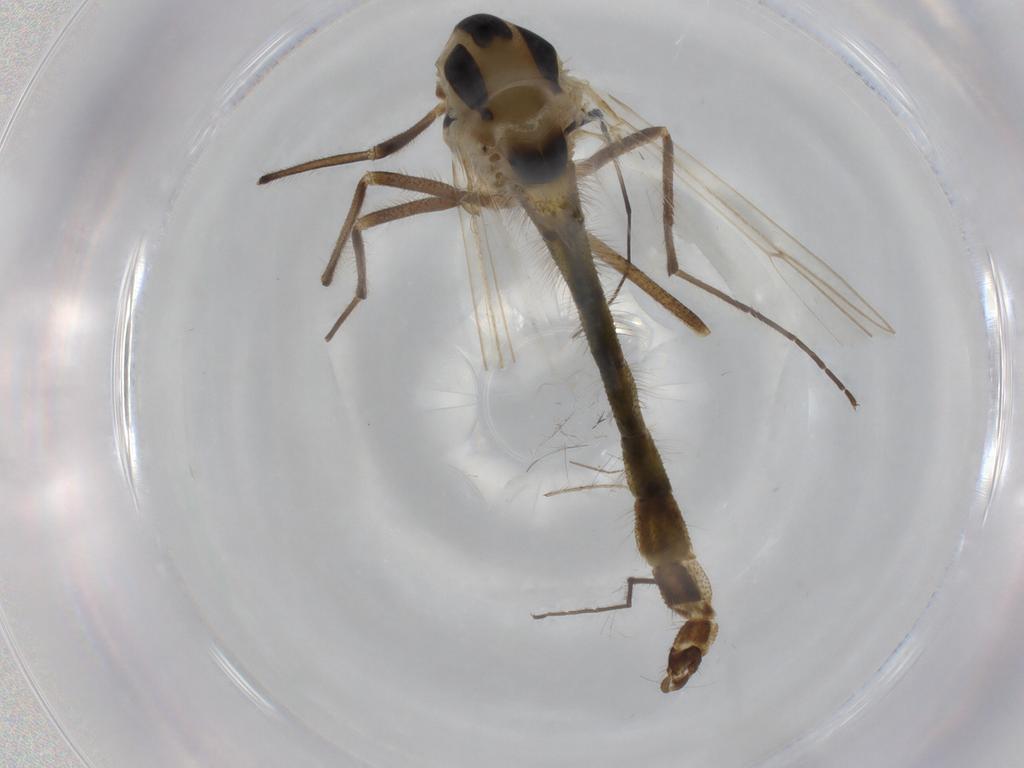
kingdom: Animalia
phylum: Arthropoda
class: Insecta
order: Diptera
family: Chironomidae
